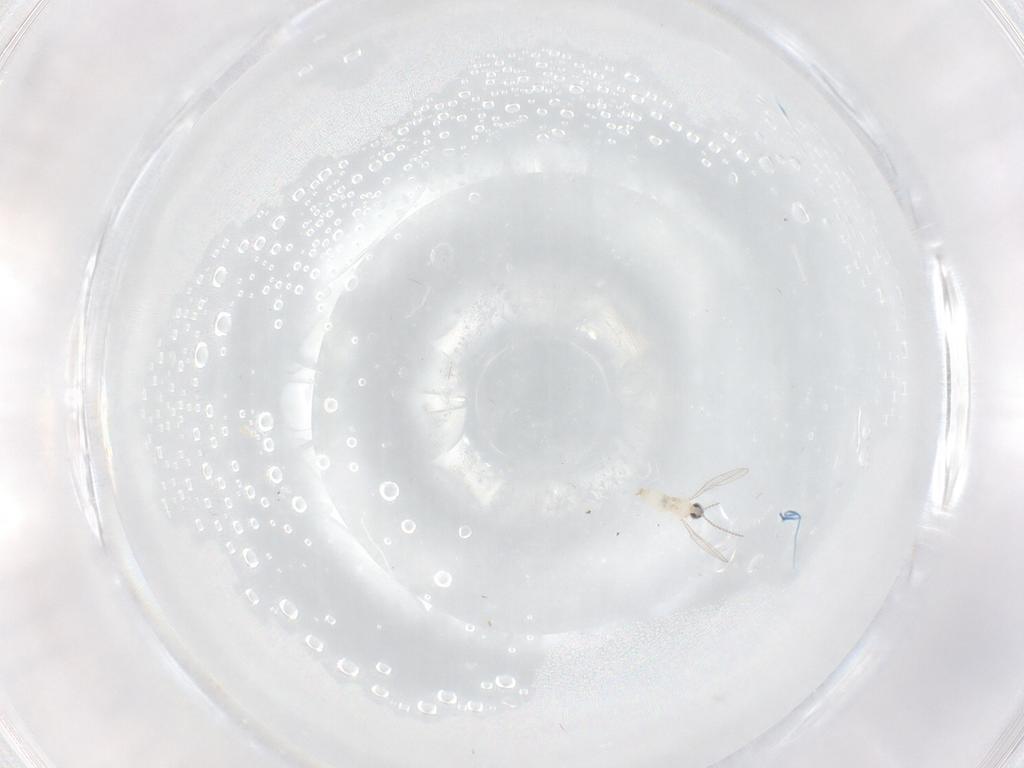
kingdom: Animalia
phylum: Arthropoda
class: Insecta
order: Diptera
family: Cecidomyiidae
